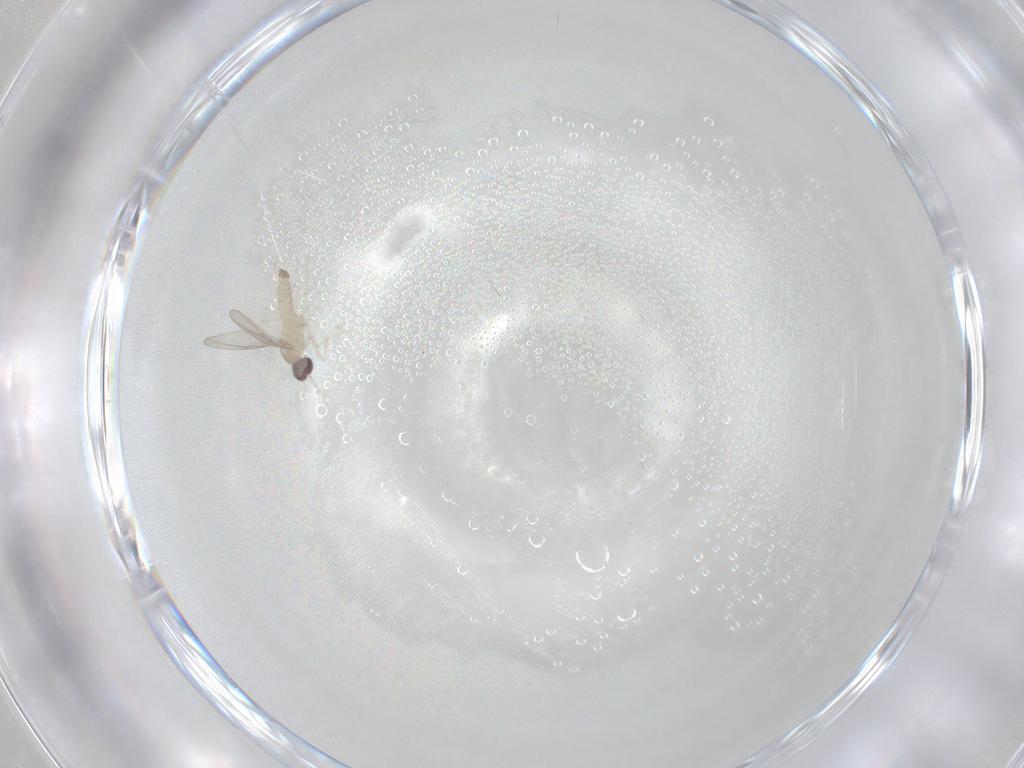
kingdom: Animalia
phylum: Arthropoda
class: Insecta
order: Diptera
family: Cecidomyiidae
